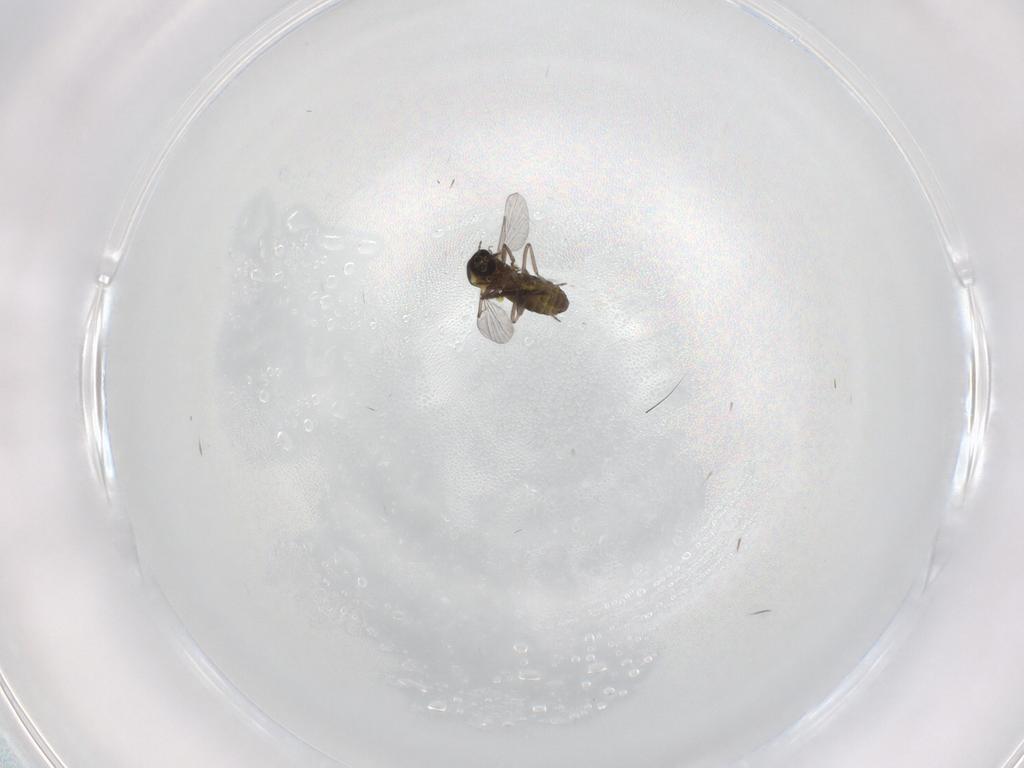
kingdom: Animalia
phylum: Arthropoda
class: Insecta
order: Diptera
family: Ceratopogonidae
